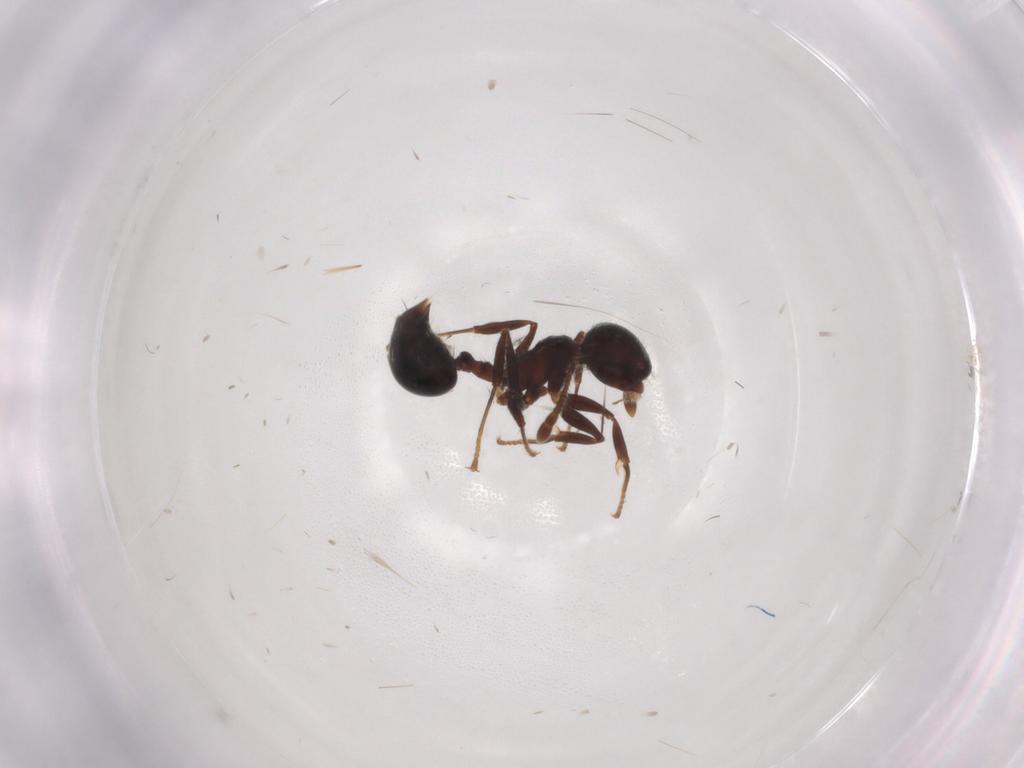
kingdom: Animalia
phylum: Arthropoda
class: Insecta
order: Hymenoptera
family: Formicidae
